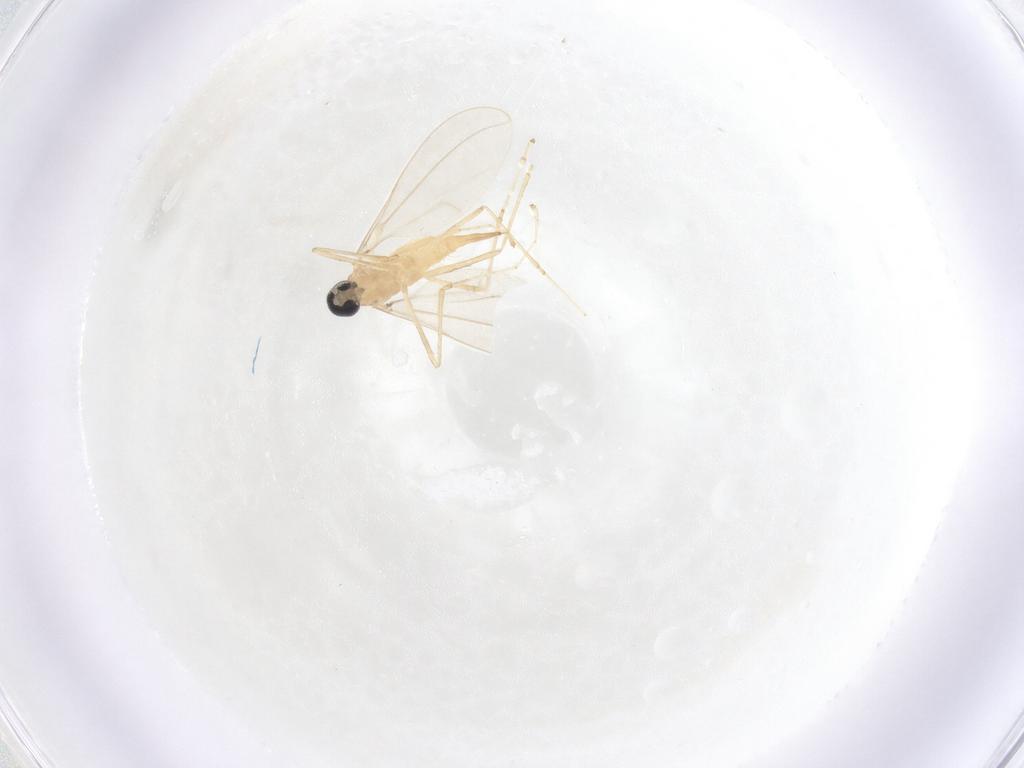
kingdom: Animalia
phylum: Arthropoda
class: Insecta
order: Diptera
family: Cecidomyiidae
